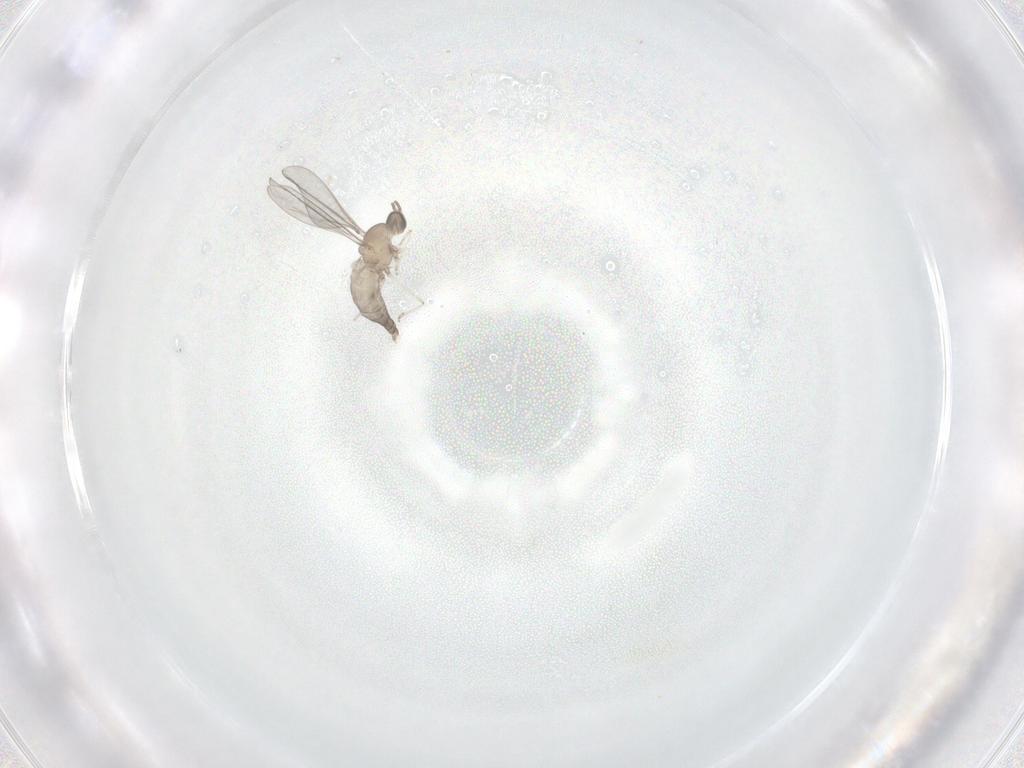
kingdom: Animalia
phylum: Arthropoda
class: Insecta
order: Diptera
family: Cecidomyiidae
